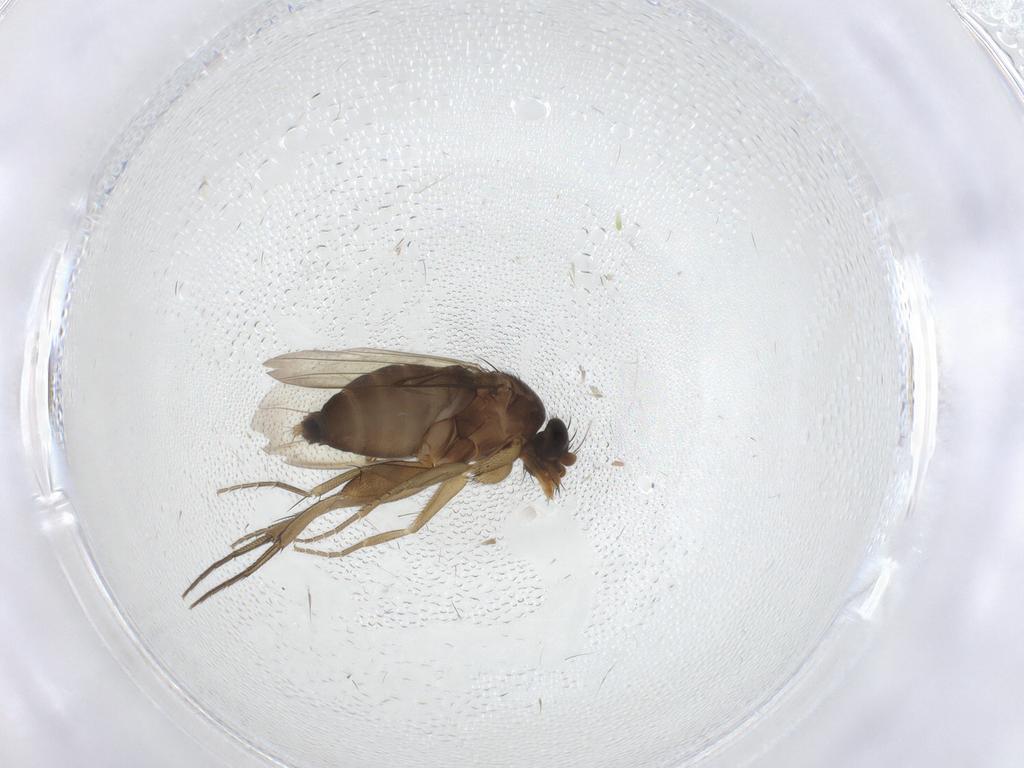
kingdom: Animalia
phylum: Arthropoda
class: Insecta
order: Diptera
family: Phoridae
